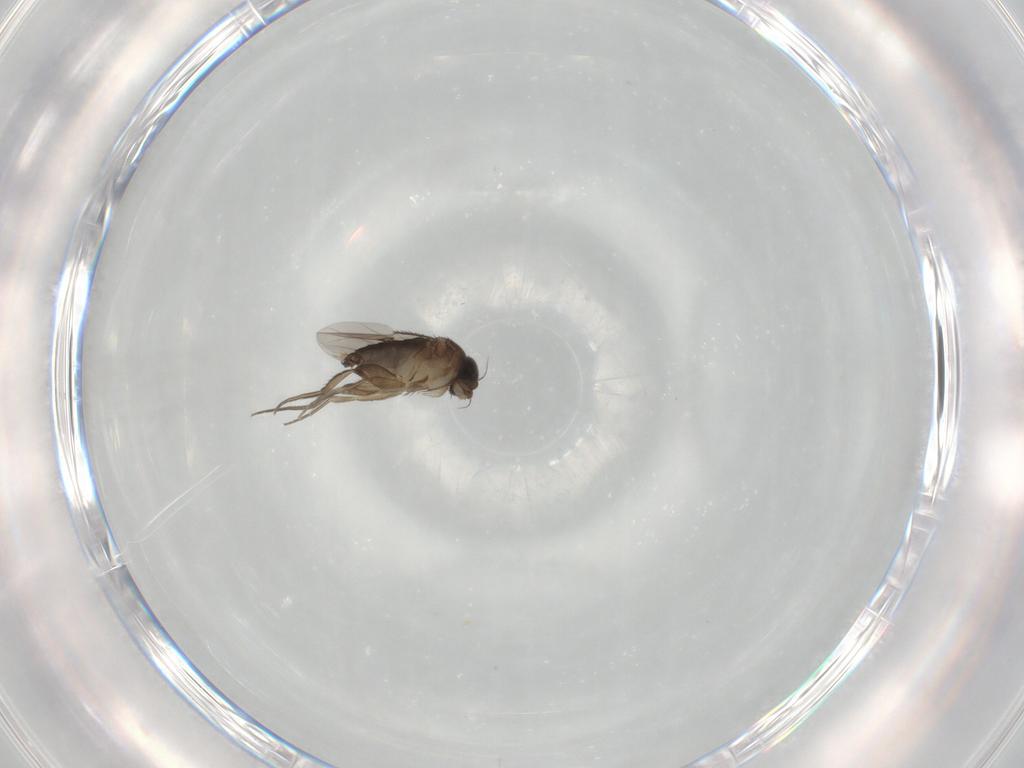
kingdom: Animalia
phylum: Arthropoda
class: Insecta
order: Diptera
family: Phoridae
